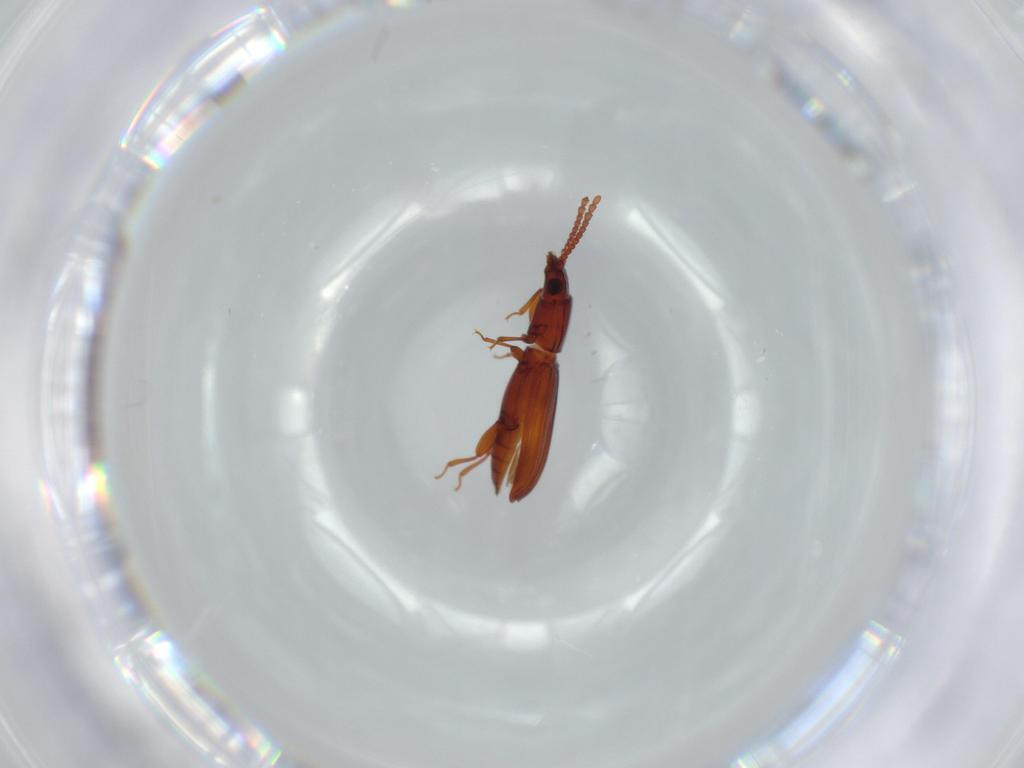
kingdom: Animalia
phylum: Arthropoda
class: Insecta
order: Coleoptera
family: Laemophloeidae
